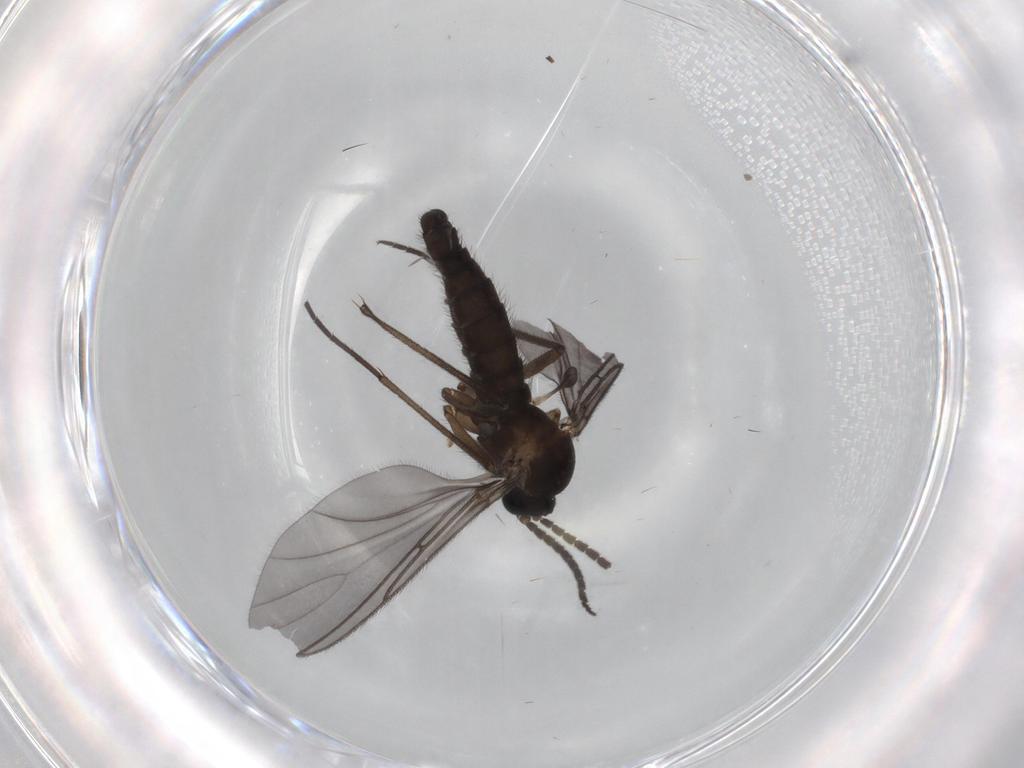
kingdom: Animalia
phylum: Arthropoda
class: Insecta
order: Diptera
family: Sciaridae
